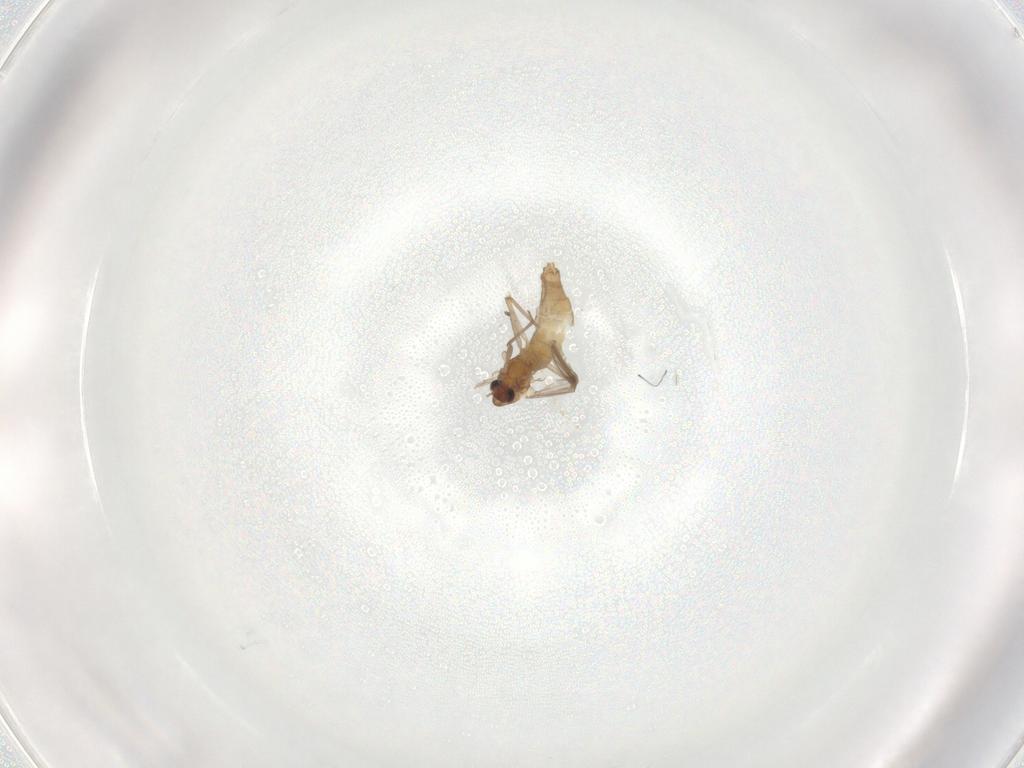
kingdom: Animalia
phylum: Arthropoda
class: Insecta
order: Diptera
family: Chironomidae
